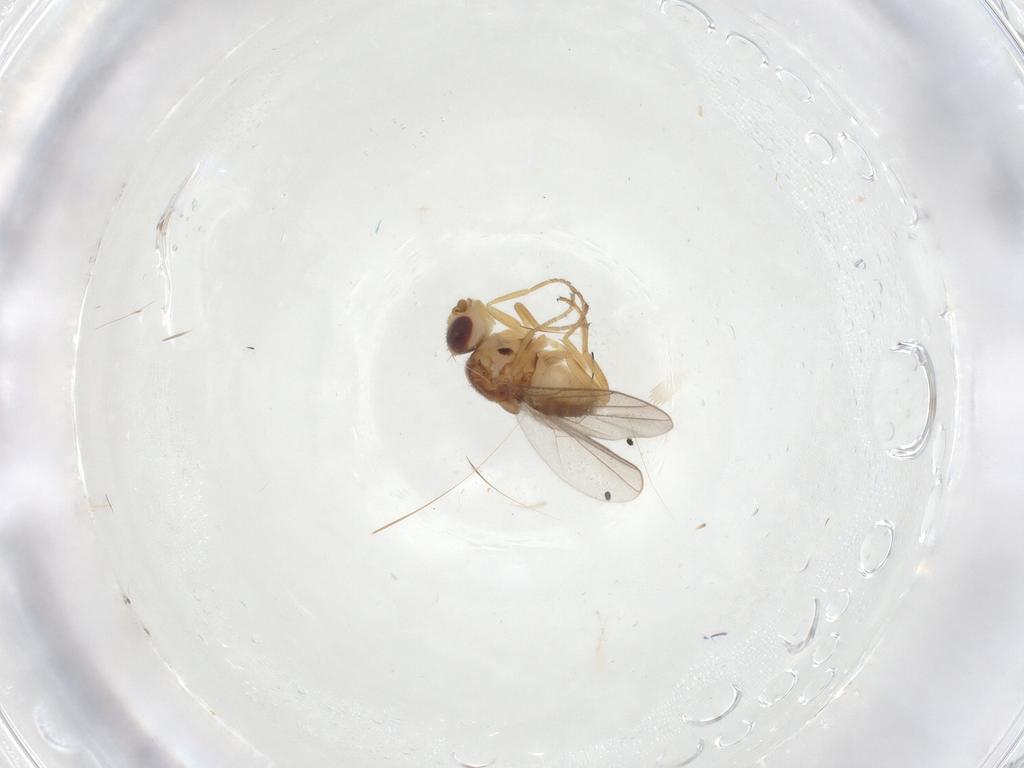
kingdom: Animalia
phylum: Arthropoda
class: Insecta
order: Diptera
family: Chloropidae
